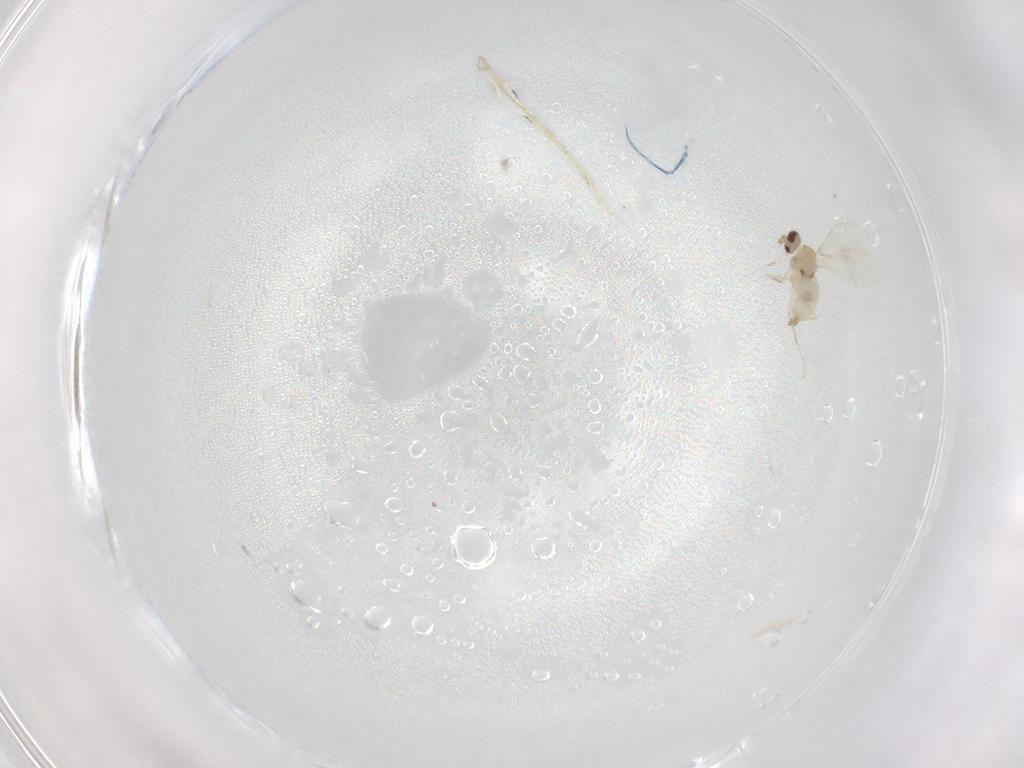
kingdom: Animalia
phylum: Arthropoda
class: Insecta
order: Diptera
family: Cecidomyiidae
